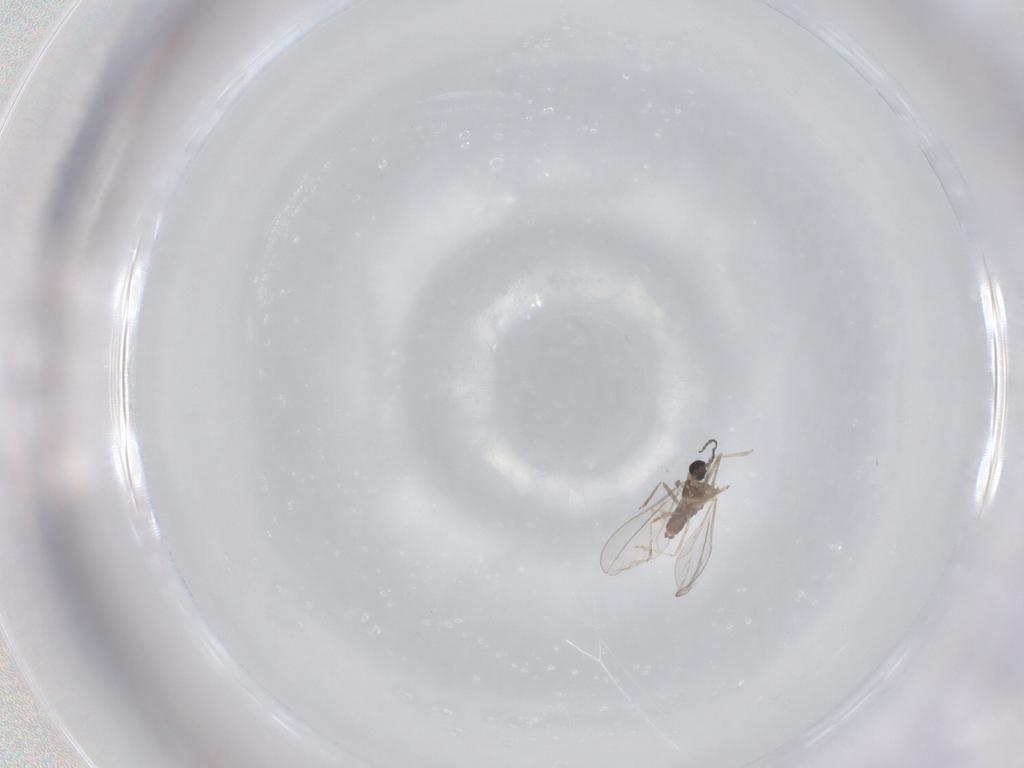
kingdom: Animalia
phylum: Arthropoda
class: Insecta
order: Diptera
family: Cecidomyiidae
